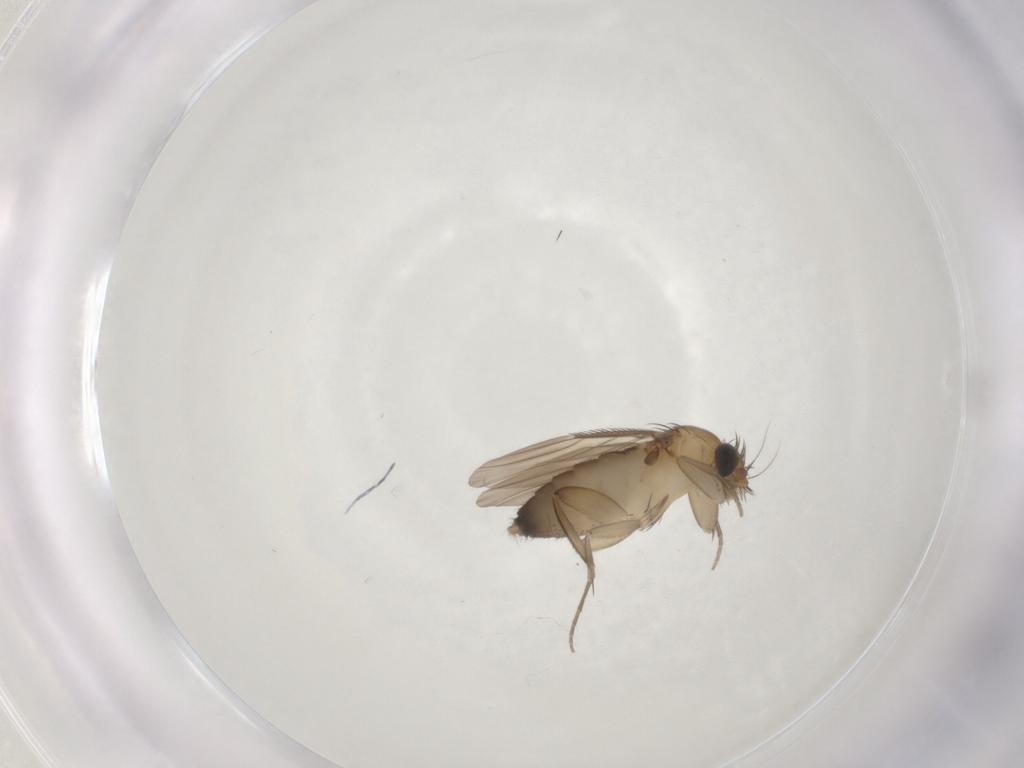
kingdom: Animalia
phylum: Arthropoda
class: Insecta
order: Diptera
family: Phoridae
